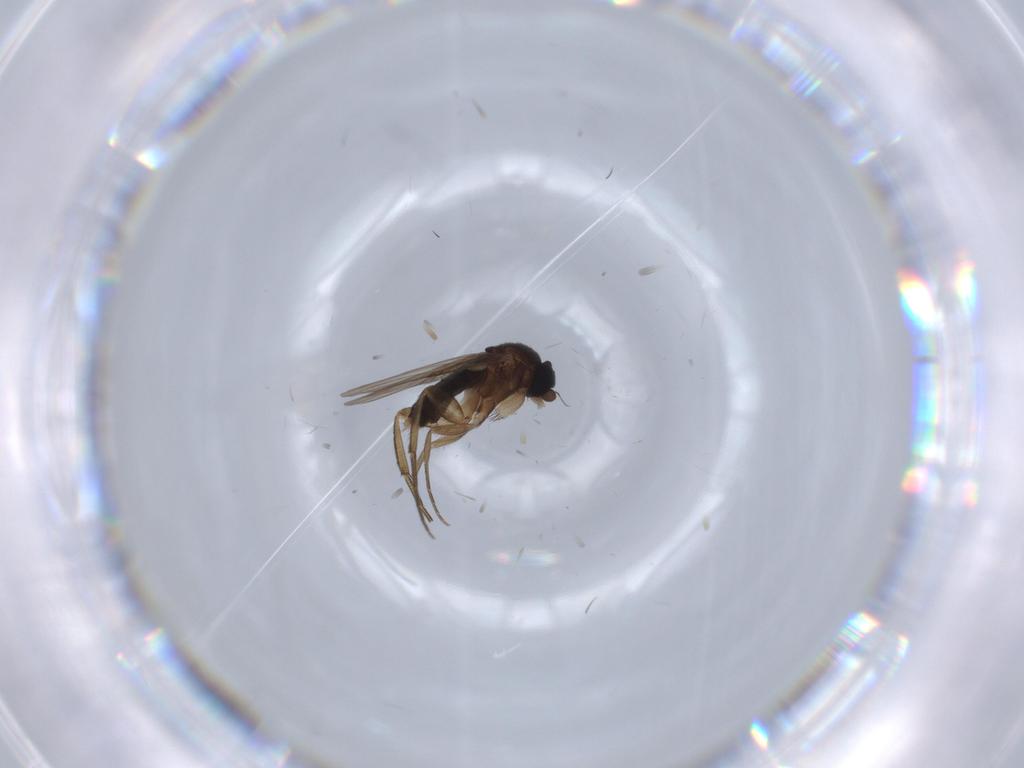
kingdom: Animalia
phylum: Arthropoda
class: Insecta
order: Diptera
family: Phoridae
